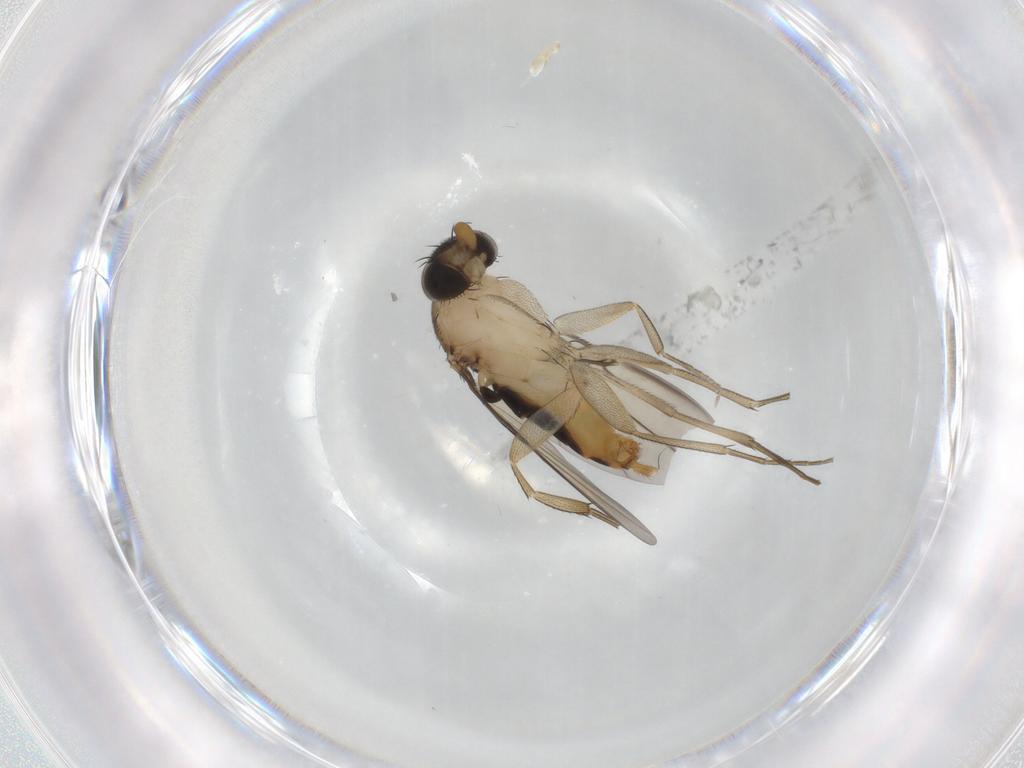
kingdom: Animalia
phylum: Arthropoda
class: Insecta
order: Diptera
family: Phoridae
